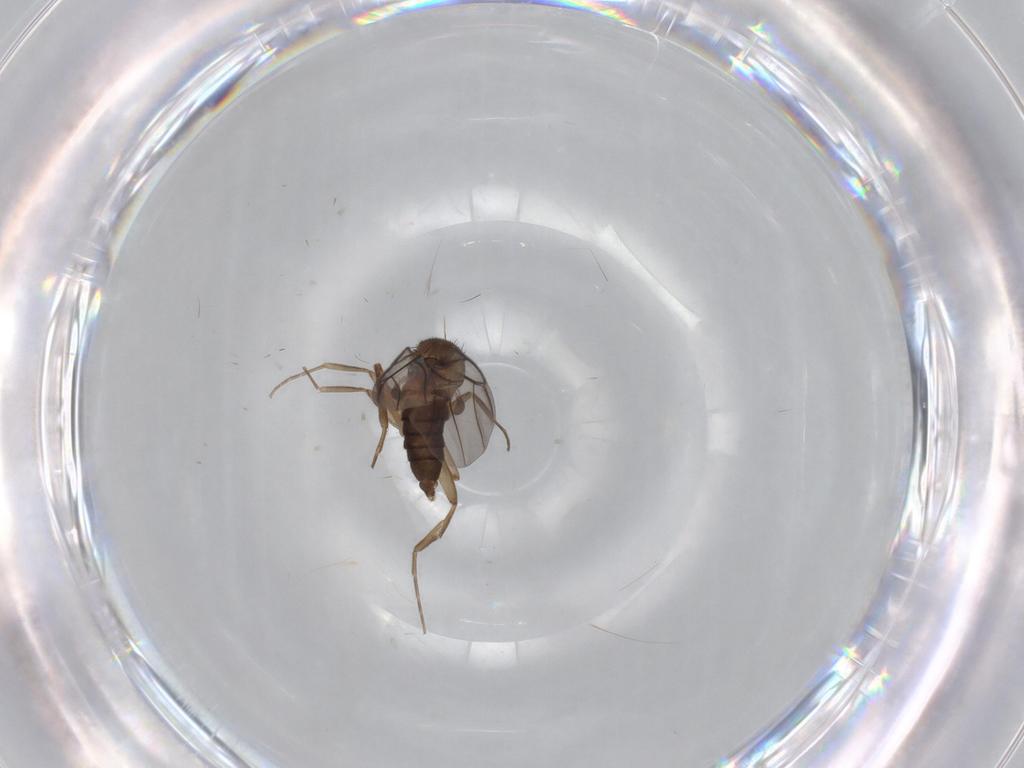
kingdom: Animalia
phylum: Arthropoda
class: Insecta
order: Diptera
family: Phoridae
